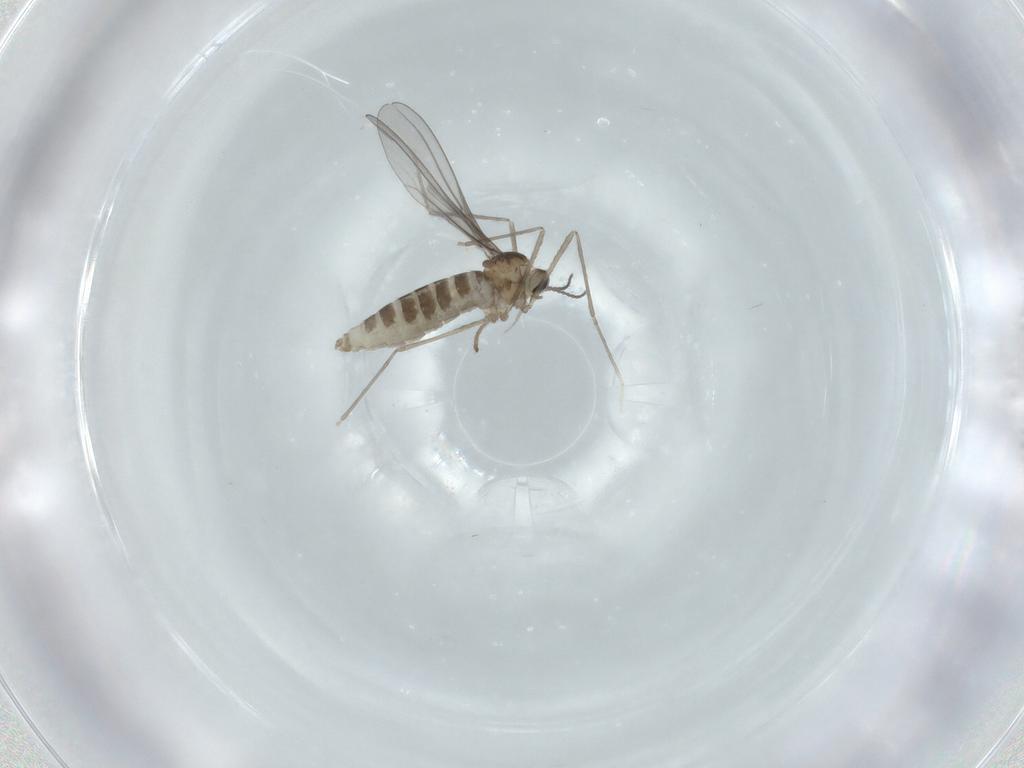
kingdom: Animalia
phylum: Arthropoda
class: Insecta
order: Diptera
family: Cecidomyiidae
